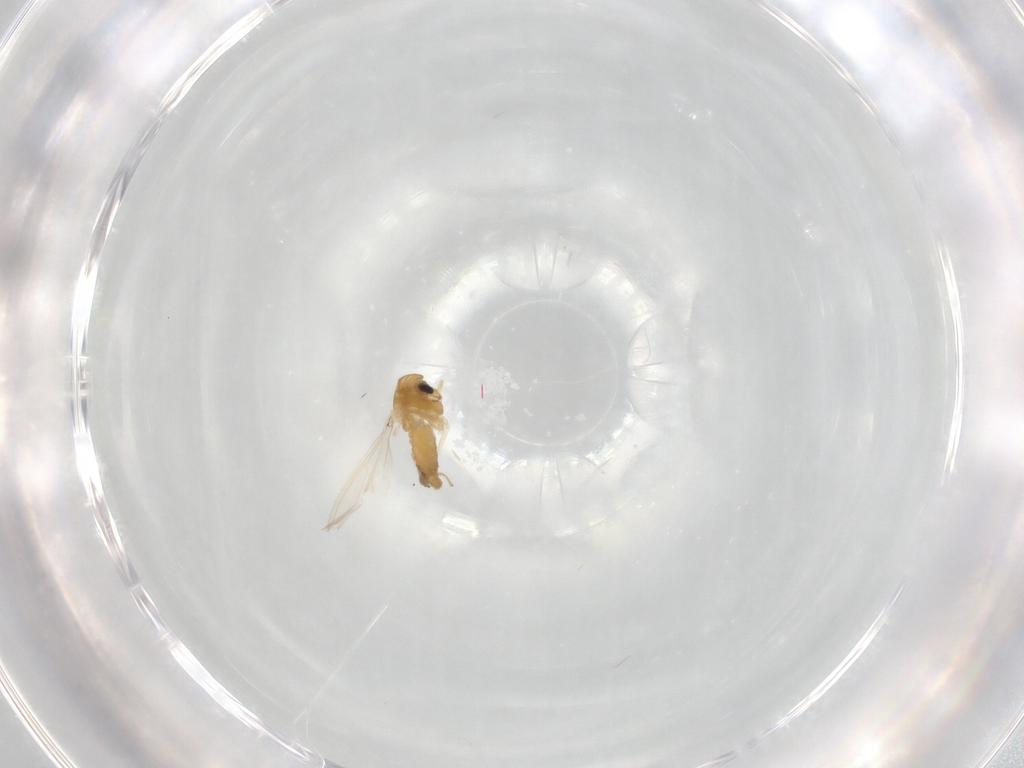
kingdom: Animalia
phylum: Arthropoda
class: Insecta
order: Diptera
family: Chironomidae
